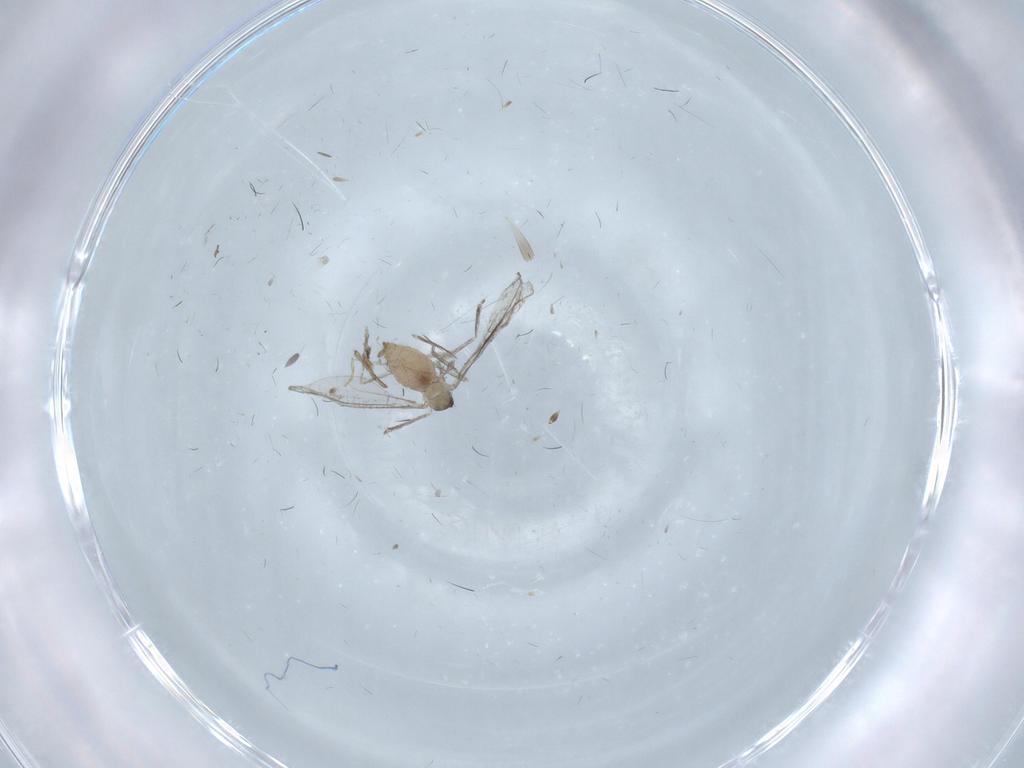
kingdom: Animalia
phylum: Arthropoda
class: Insecta
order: Diptera
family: Cecidomyiidae
